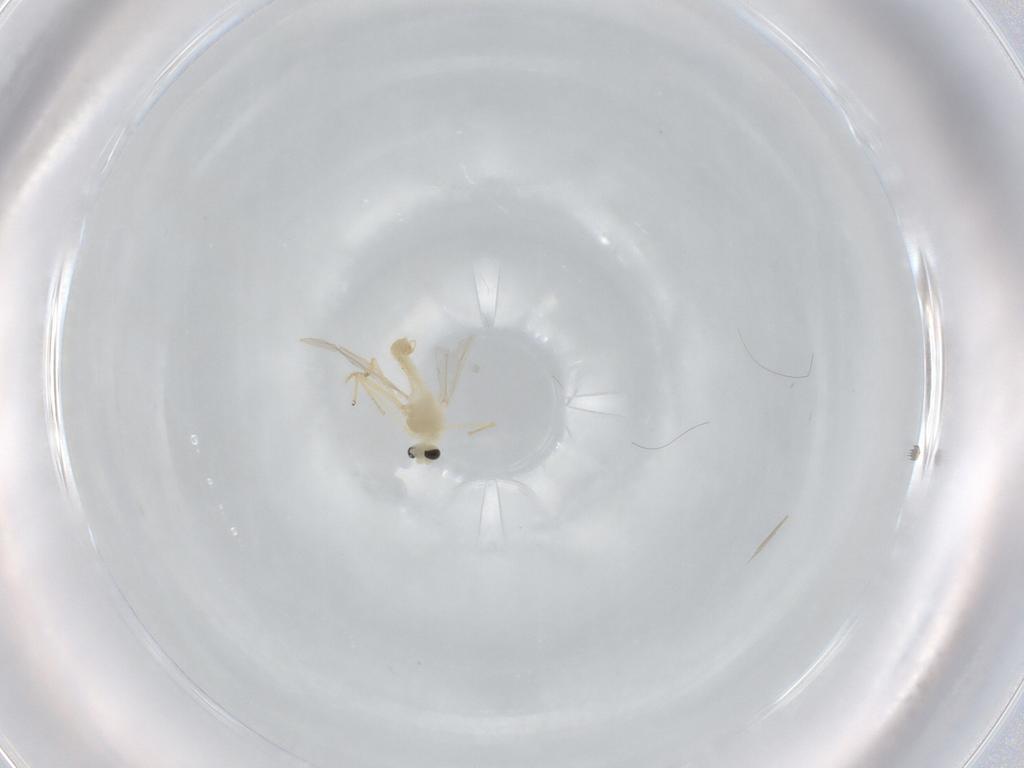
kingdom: Animalia
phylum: Arthropoda
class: Insecta
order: Diptera
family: Chironomidae
